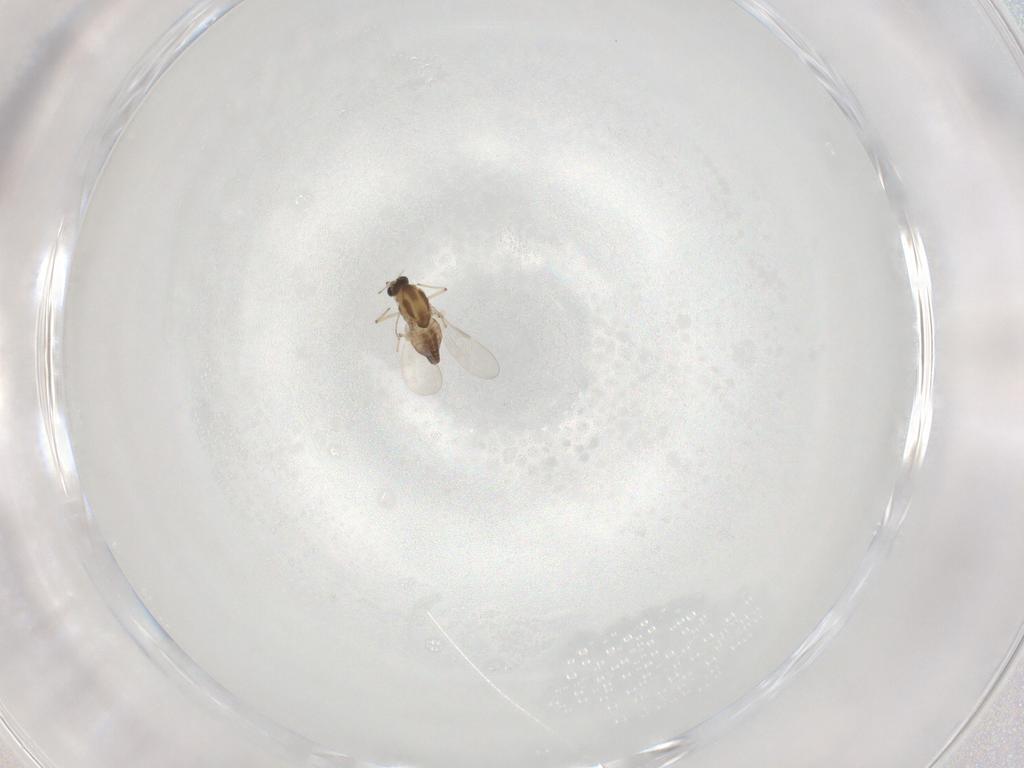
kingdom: Animalia
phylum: Arthropoda
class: Insecta
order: Diptera
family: Chironomidae
